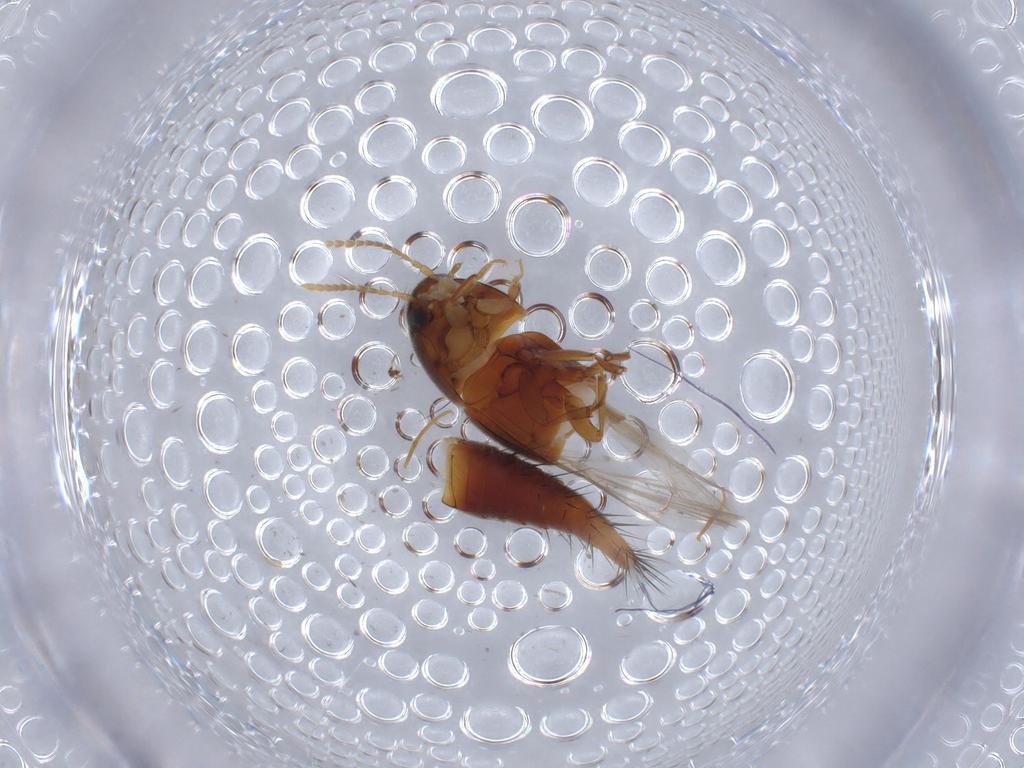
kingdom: Animalia
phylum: Arthropoda
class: Insecta
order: Coleoptera
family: Staphylinidae
